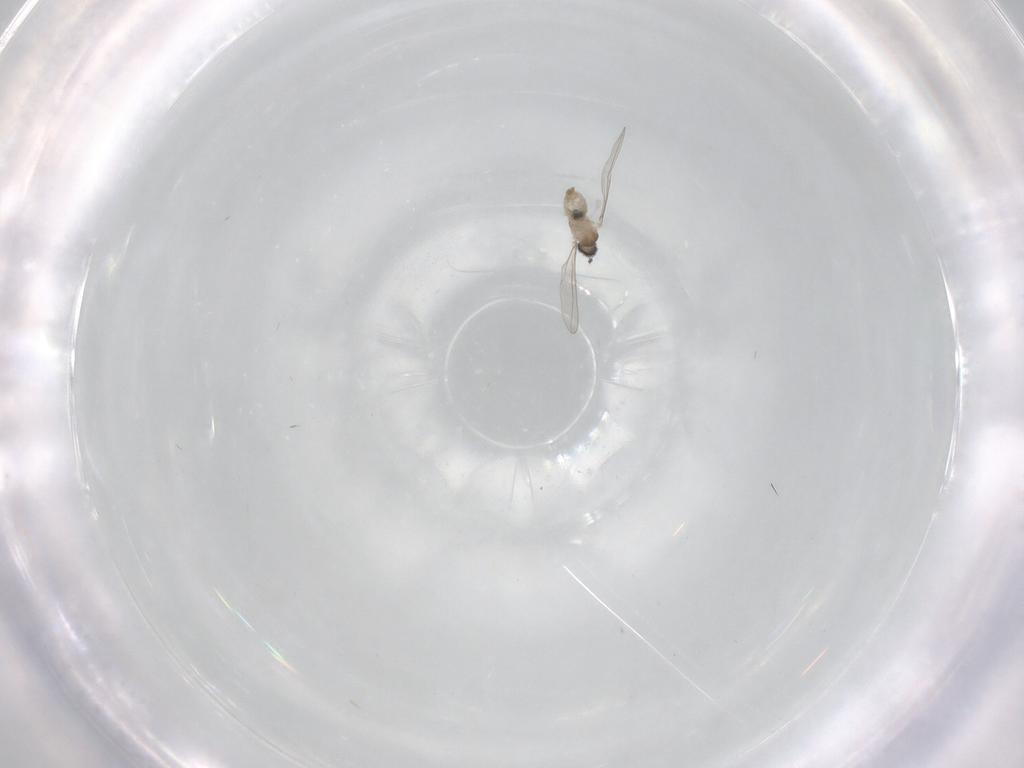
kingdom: Animalia
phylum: Arthropoda
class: Insecta
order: Diptera
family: Cecidomyiidae
